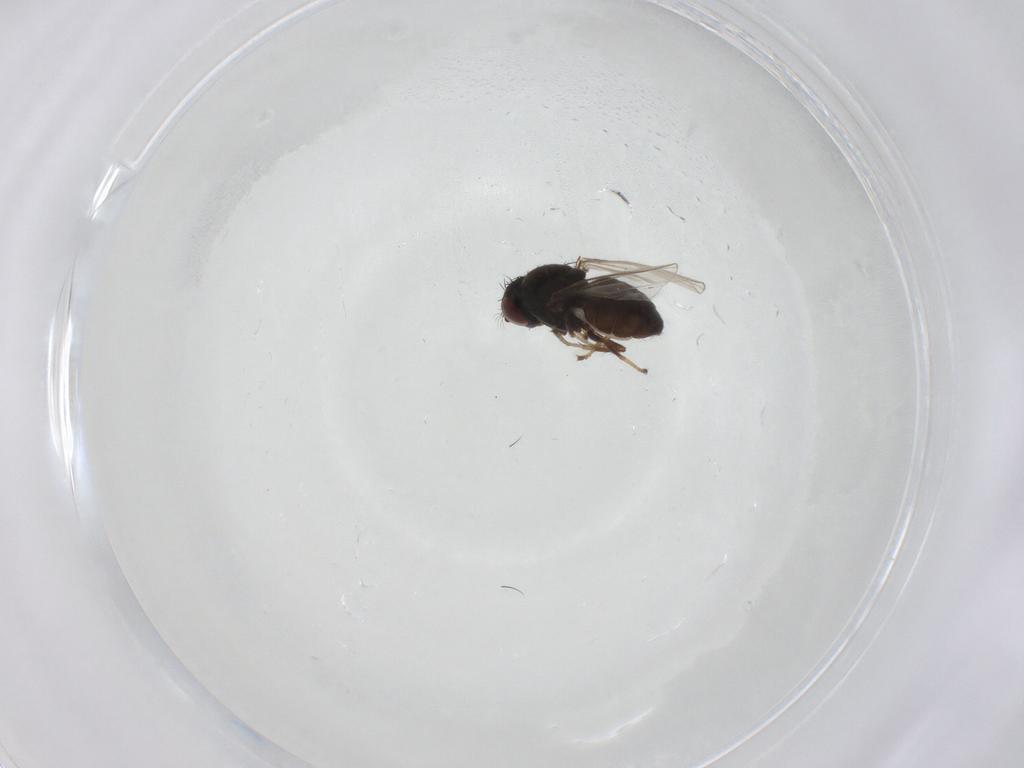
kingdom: Animalia
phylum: Arthropoda
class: Insecta
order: Diptera
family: Ephydridae
